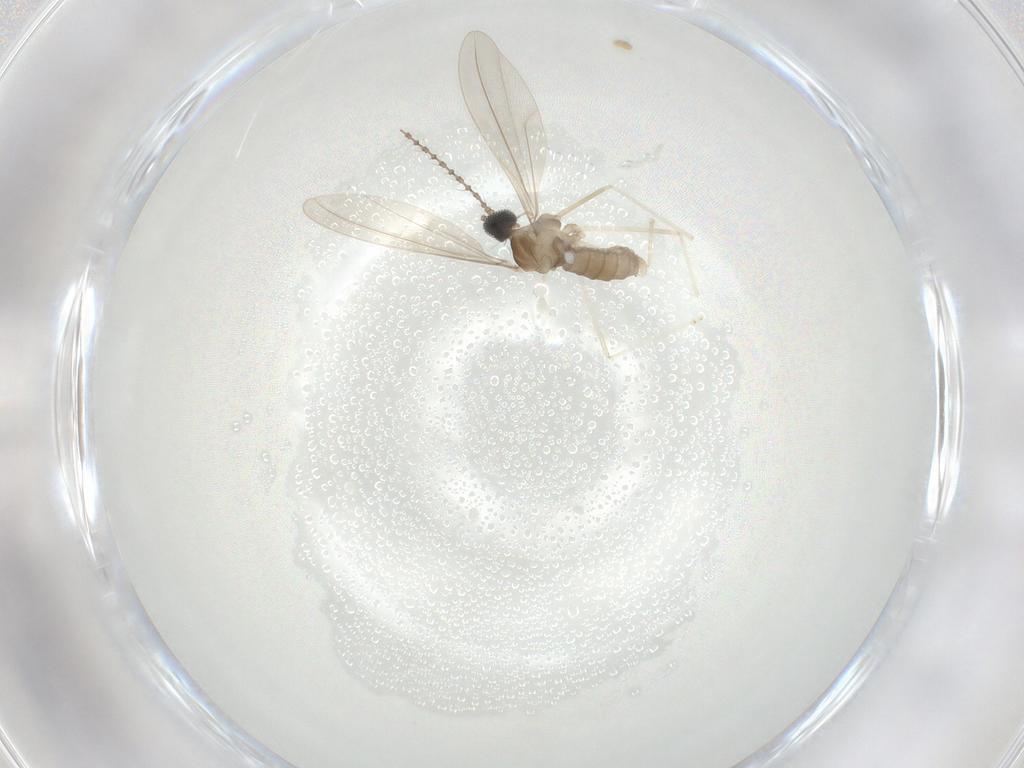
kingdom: Animalia
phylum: Arthropoda
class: Insecta
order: Diptera
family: Cecidomyiidae
